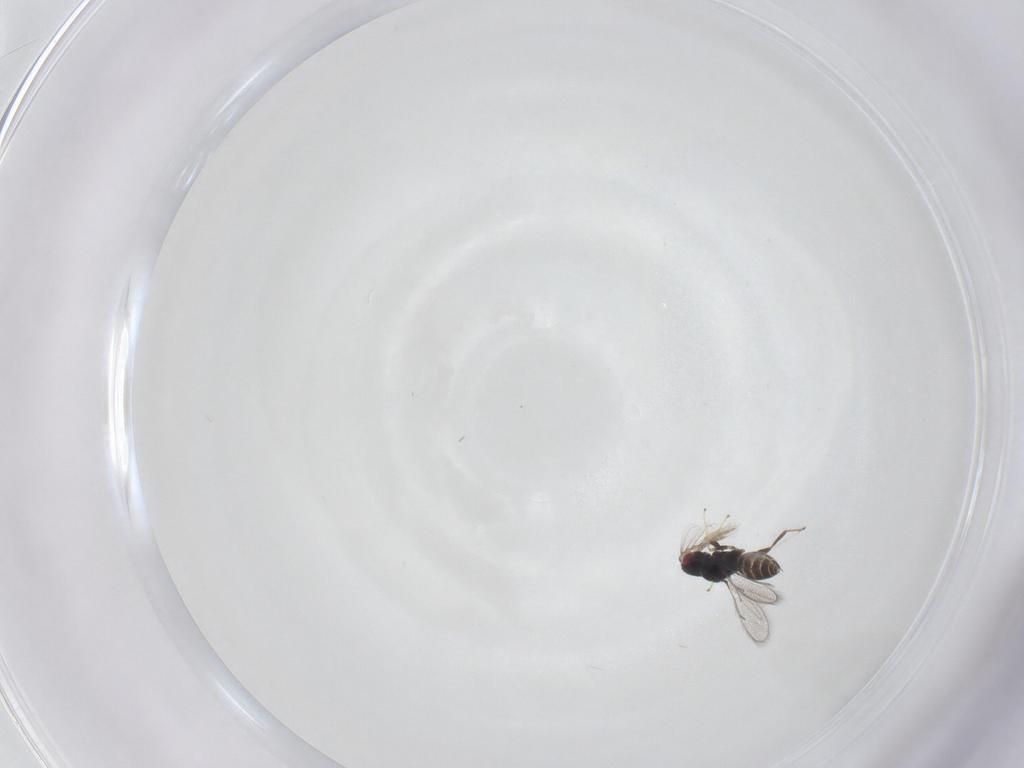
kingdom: Animalia
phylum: Arthropoda
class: Insecta
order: Hymenoptera
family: Eulophidae
